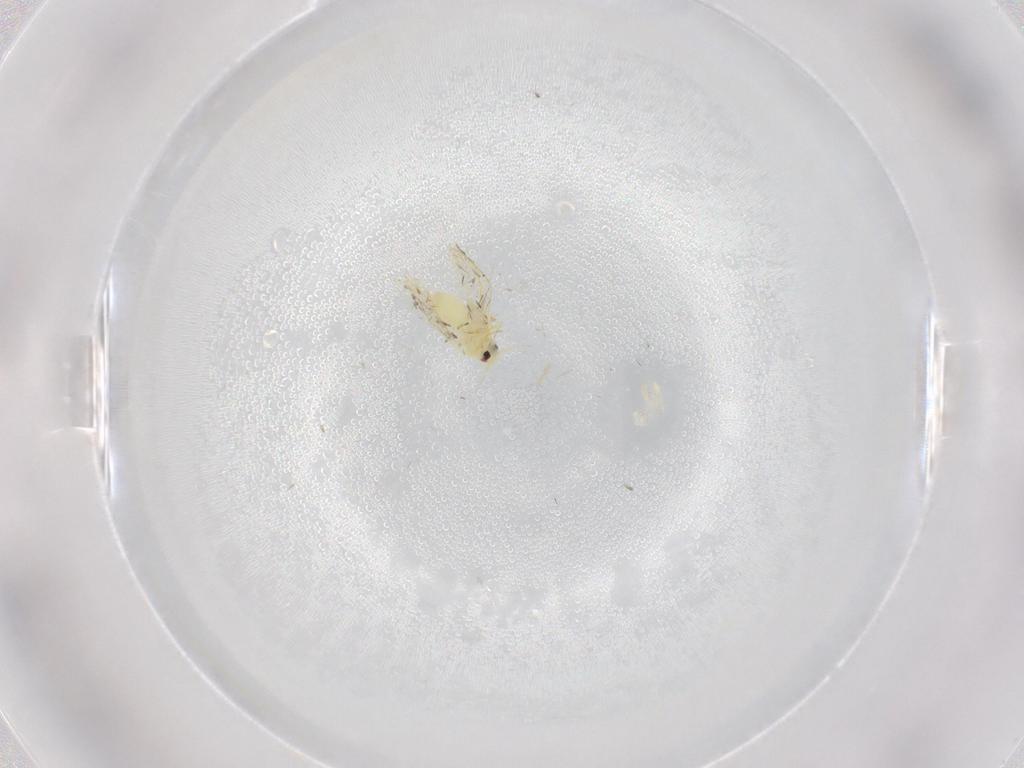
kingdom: Animalia
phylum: Arthropoda
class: Insecta
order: Hemiptera
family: Aleyrodidae
